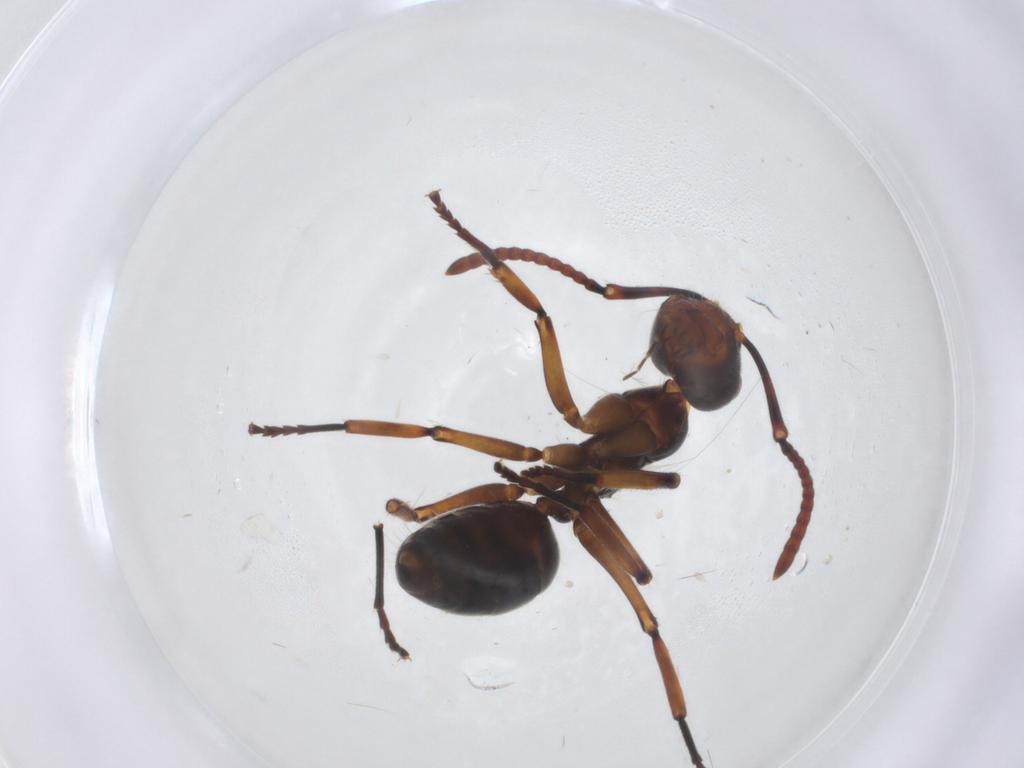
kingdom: Animalia
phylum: Arthropoda
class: Insecta
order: Hymenoptera
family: Formicidae
